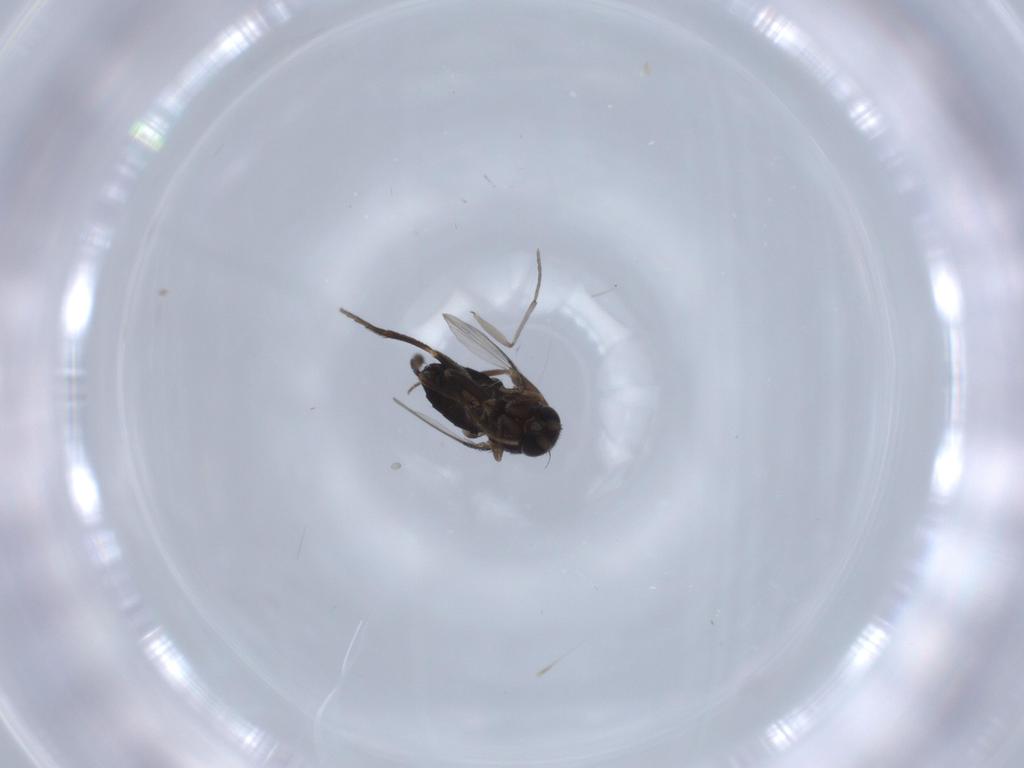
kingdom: Animalia
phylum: Arthropoda
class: Insecta
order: Diptera
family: Phoridae
